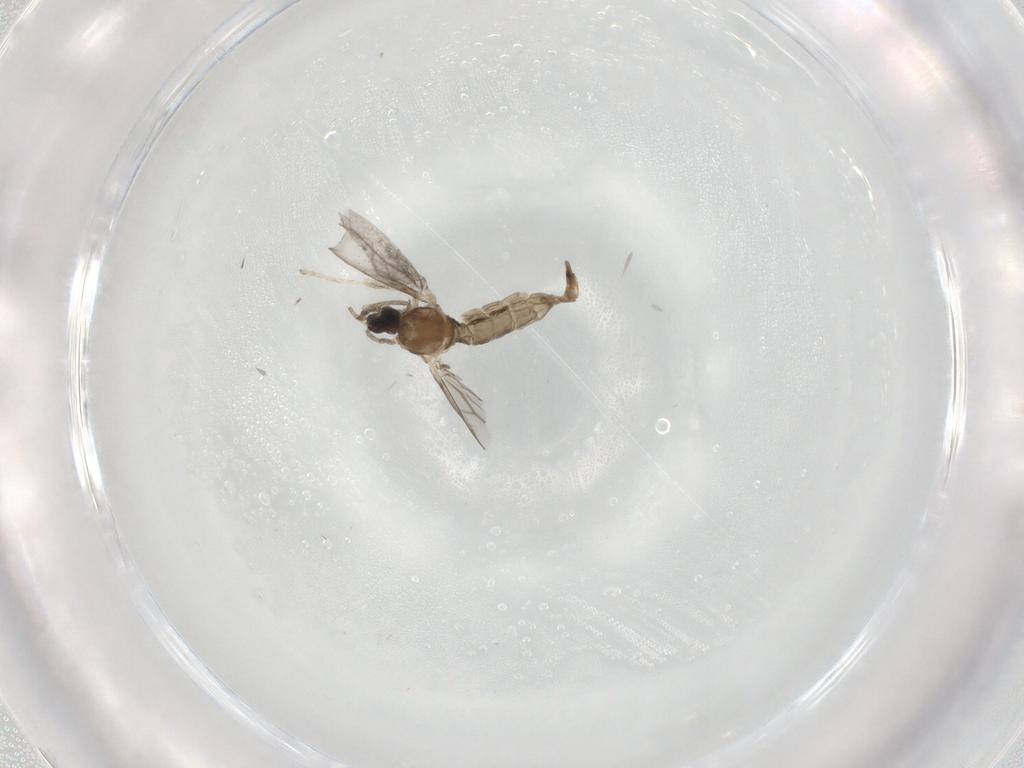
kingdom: Animalia
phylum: Arthropoda
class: Insecta
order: Diptera
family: Cecidomyiidae
